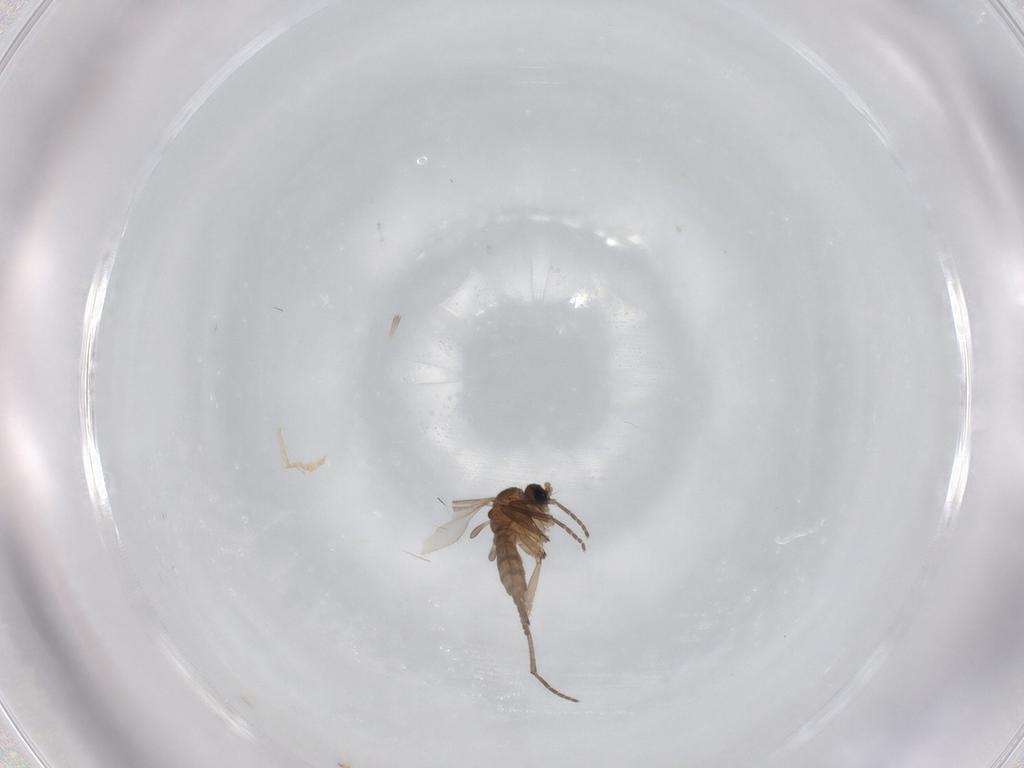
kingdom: Animalia
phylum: Arthropoda
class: Insecta
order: Diptera
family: Sciaridae
